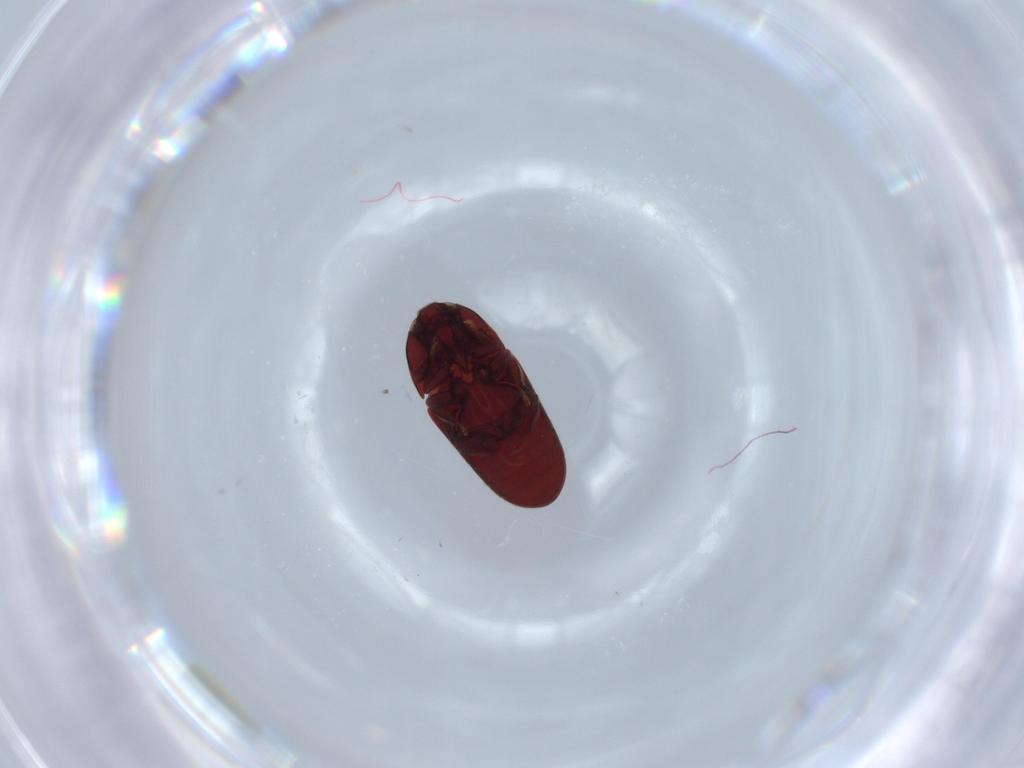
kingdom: Animalia
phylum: Arthropoda
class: Insecta
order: Coleoptera
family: Throscidae
